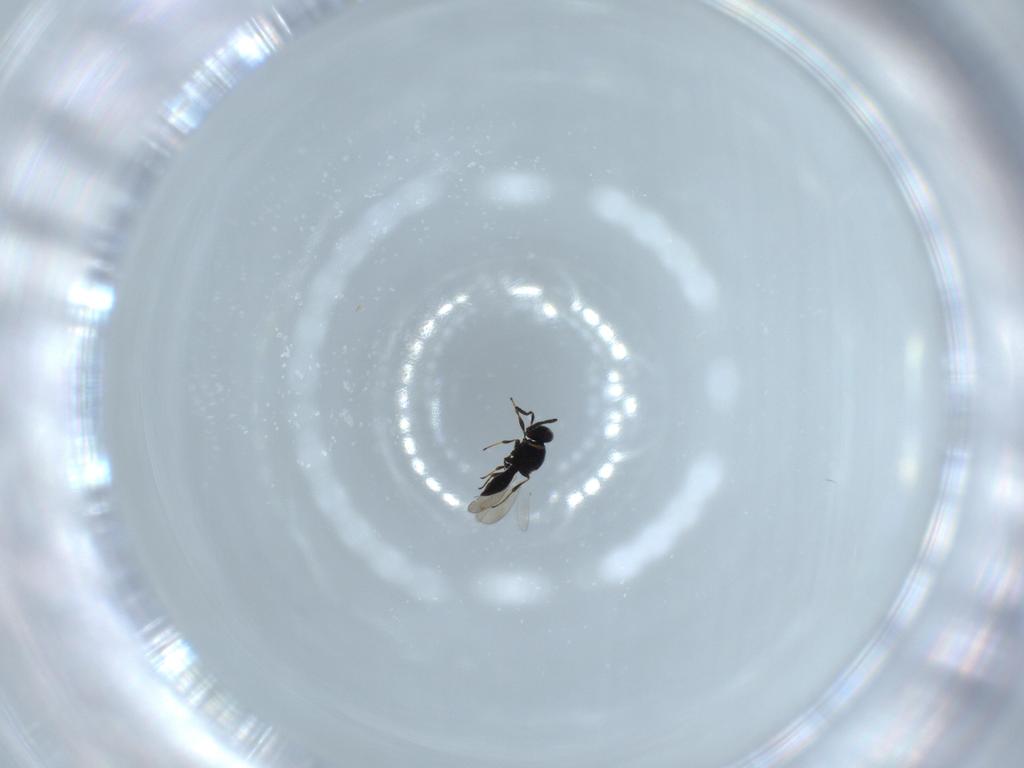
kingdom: Animalia
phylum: Arthropoda
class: Insecta
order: Hymenoptera
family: Platygastridae
